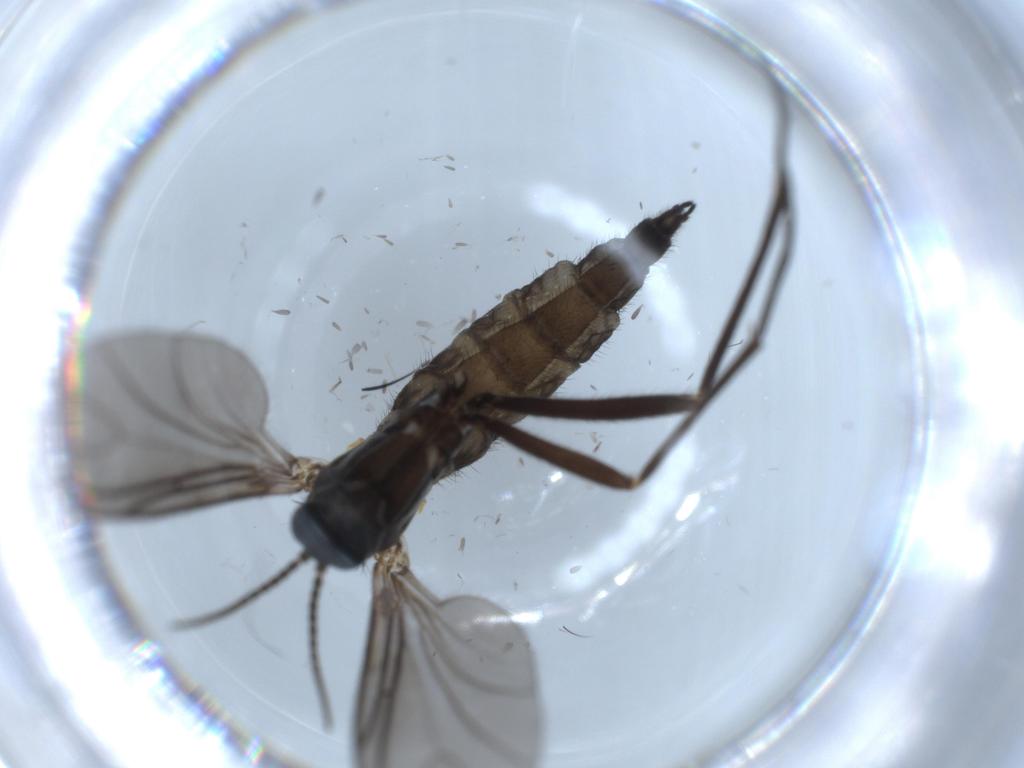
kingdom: Animalia
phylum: Arthropoda
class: Insecta
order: Diptera
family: Sciaridae
